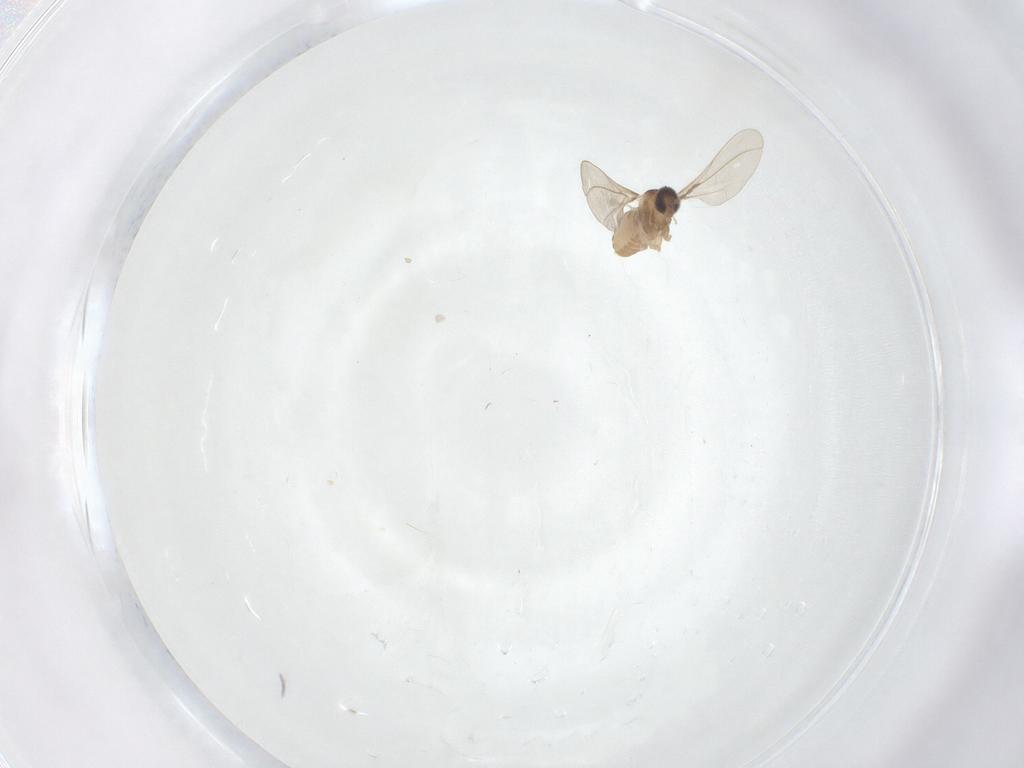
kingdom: Animalia
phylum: Arthropoda
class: Insecta
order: Diptera
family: Cecidomyiidae
